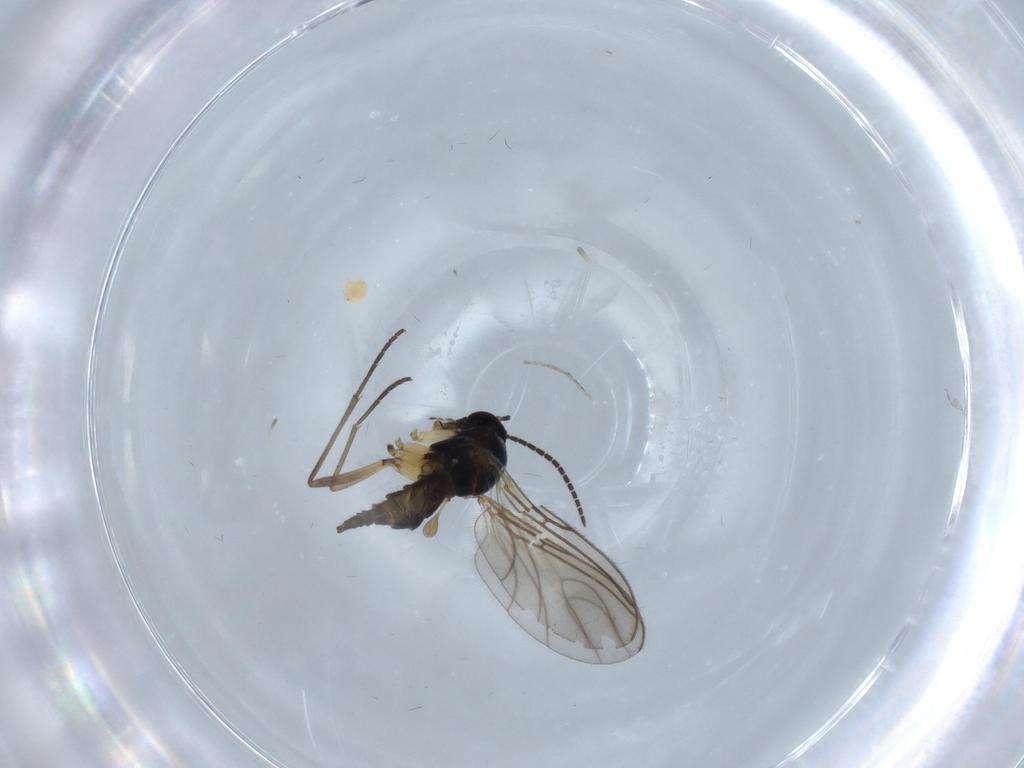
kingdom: Animalia
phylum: Arthropoda
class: Insecta
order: Diptera
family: Sciaridae
